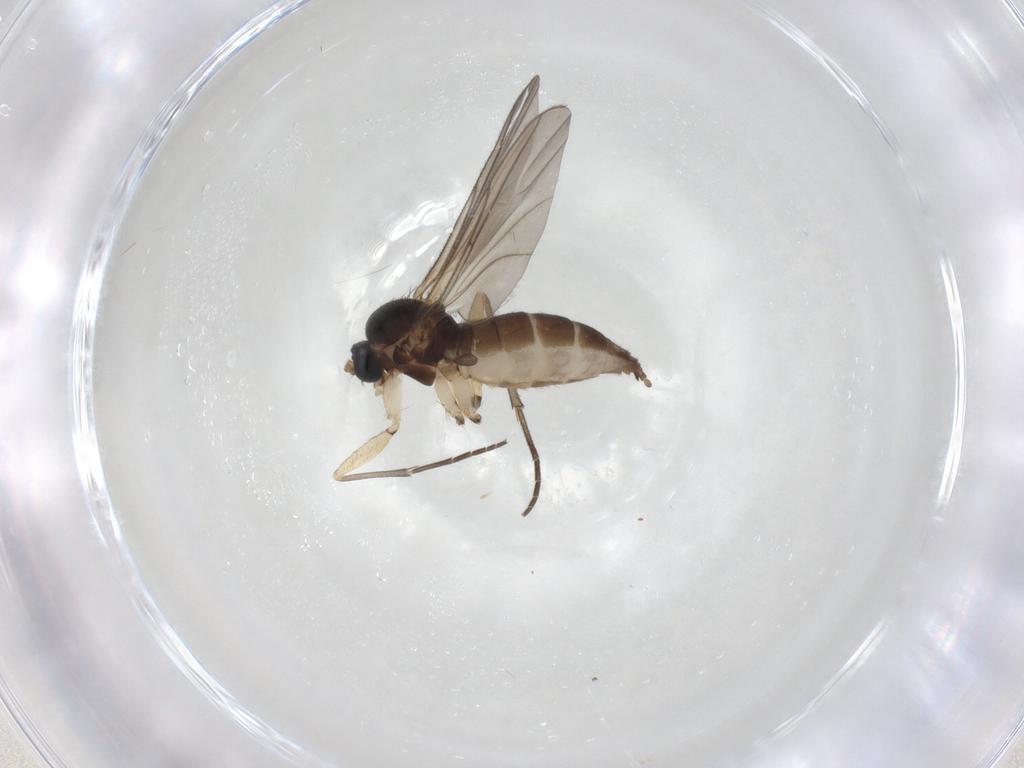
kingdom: Animalia
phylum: Arthropoda
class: Insecta
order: Diptera
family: Sciaridae
